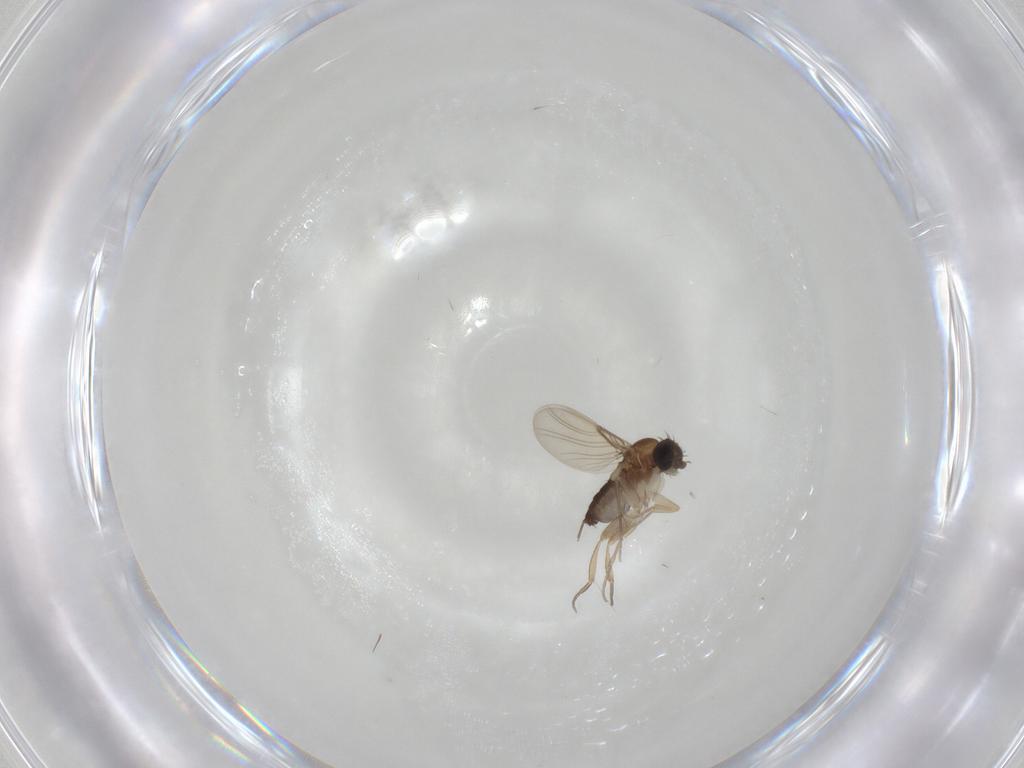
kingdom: Animalia
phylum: Arthropoda
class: Insecta
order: Diptera
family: Phoridae
